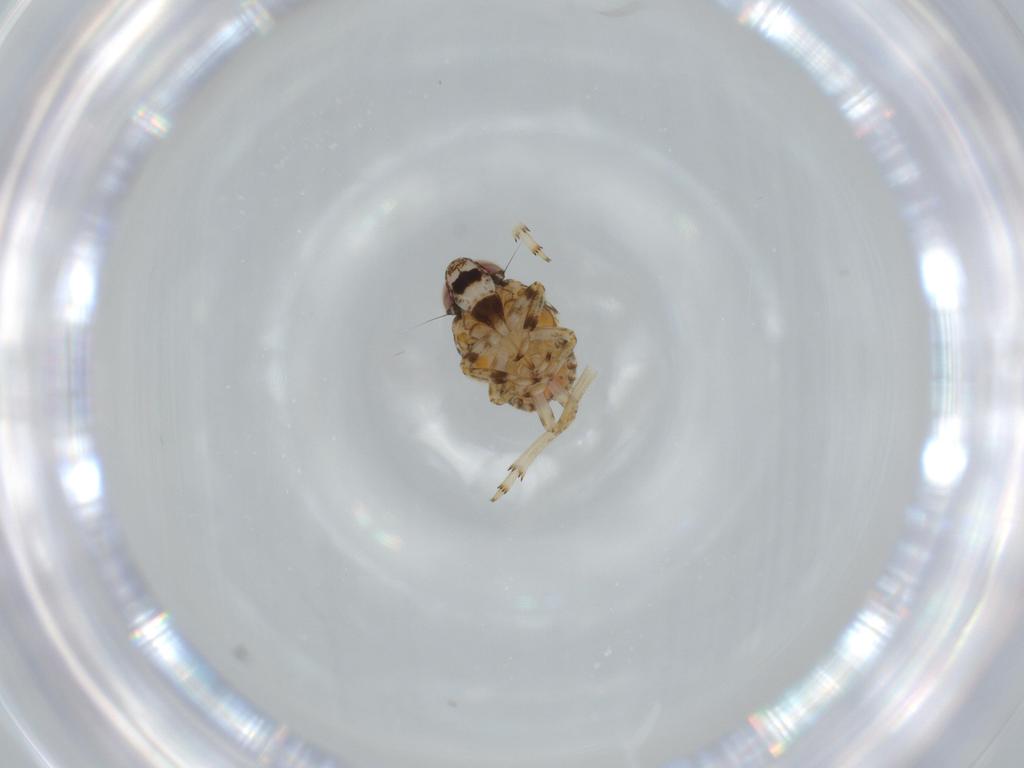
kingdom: Animalia
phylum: Arthropoda
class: Insecta
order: Hemiptera
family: Issidae
